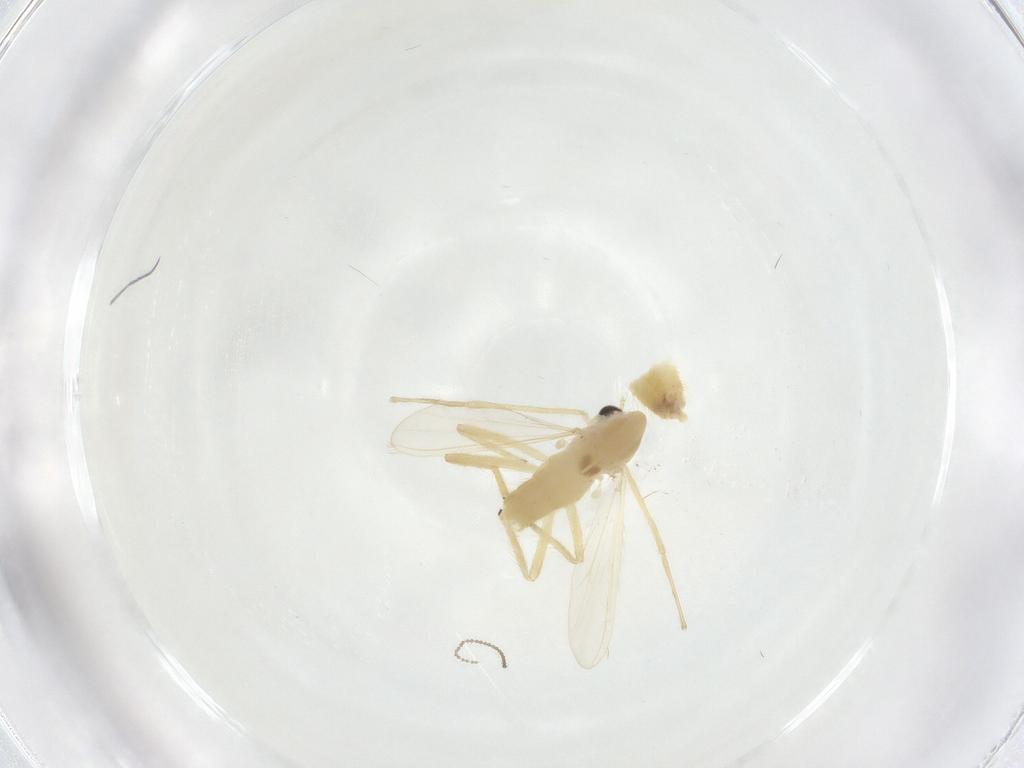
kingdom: Animalia
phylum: Arthropoda
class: Insecta
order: Diptera
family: Chironomidae
